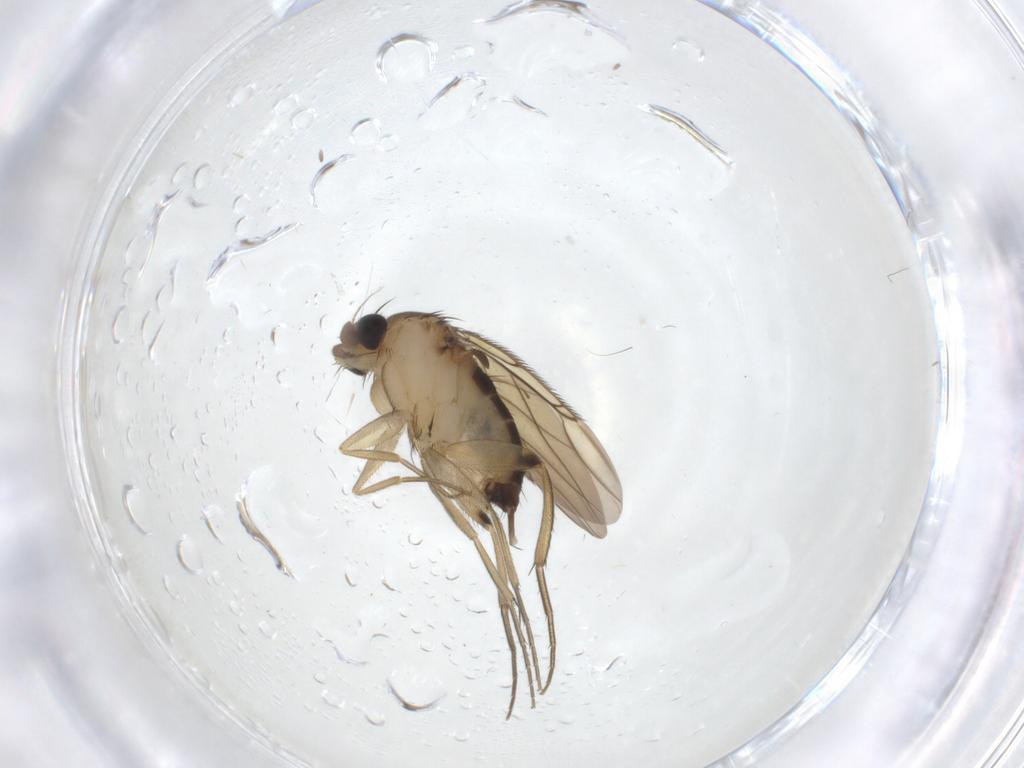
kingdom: Animalia
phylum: Arthropoda
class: Insecta
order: Diptera
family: Phoridae
